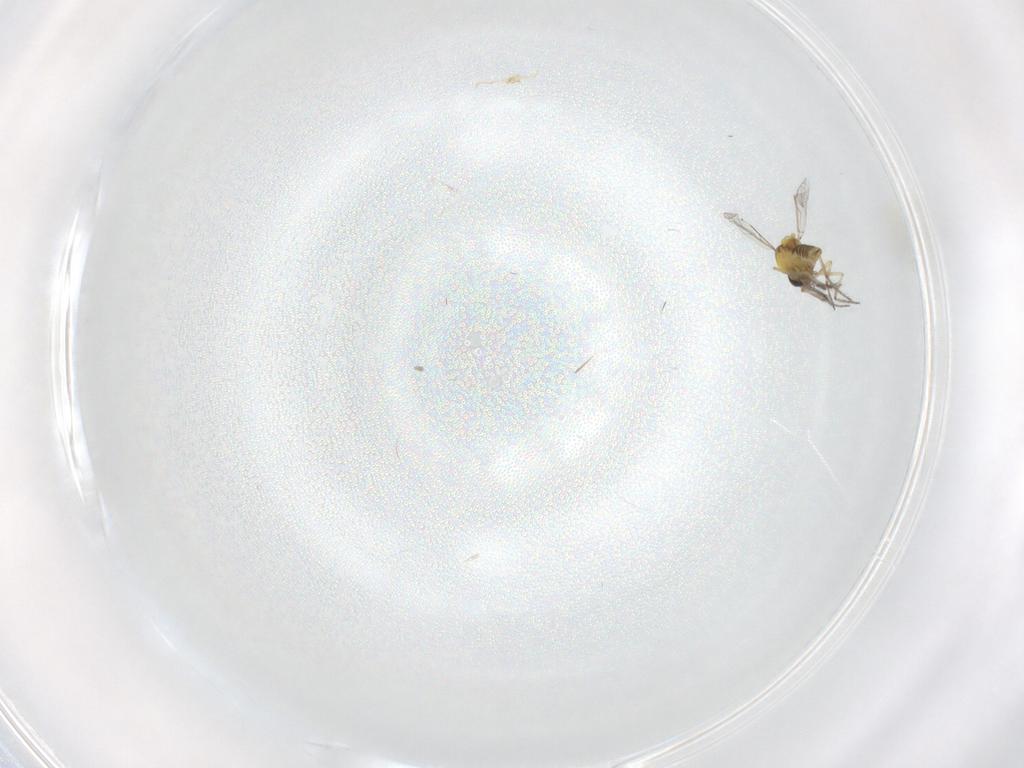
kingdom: Animalia
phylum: Arthropoda
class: Insecta
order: Diptera
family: Ceratopogonidae
